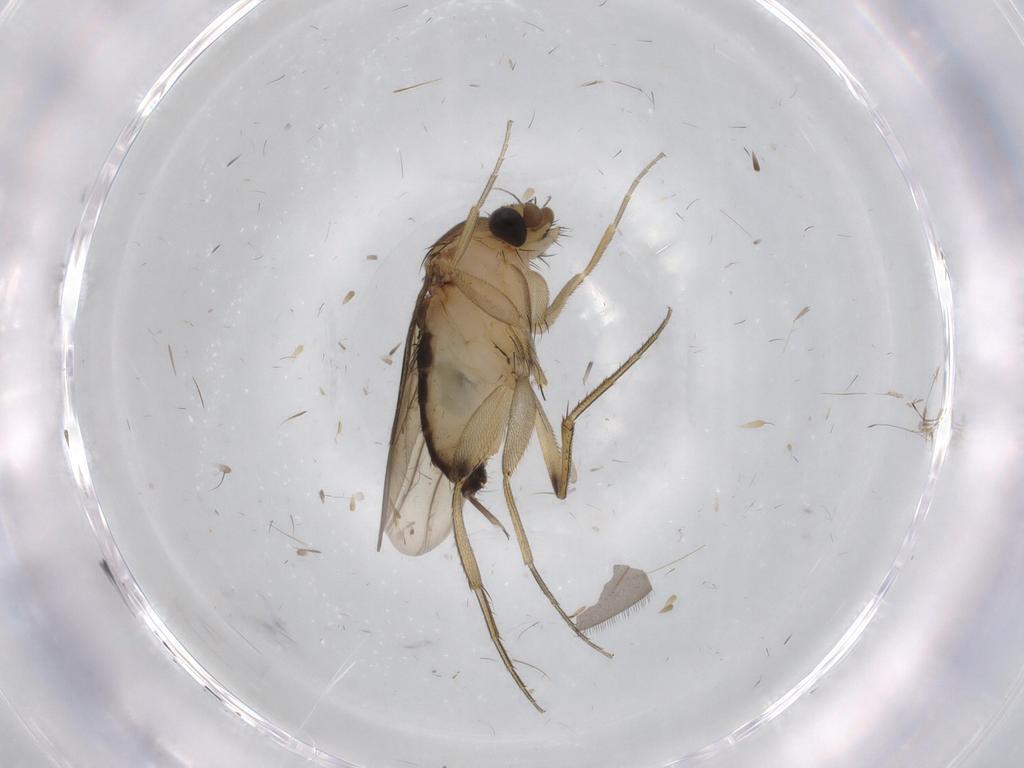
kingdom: Animalia
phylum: Arthropoda
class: Insecta
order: Diptera
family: Phoridae
